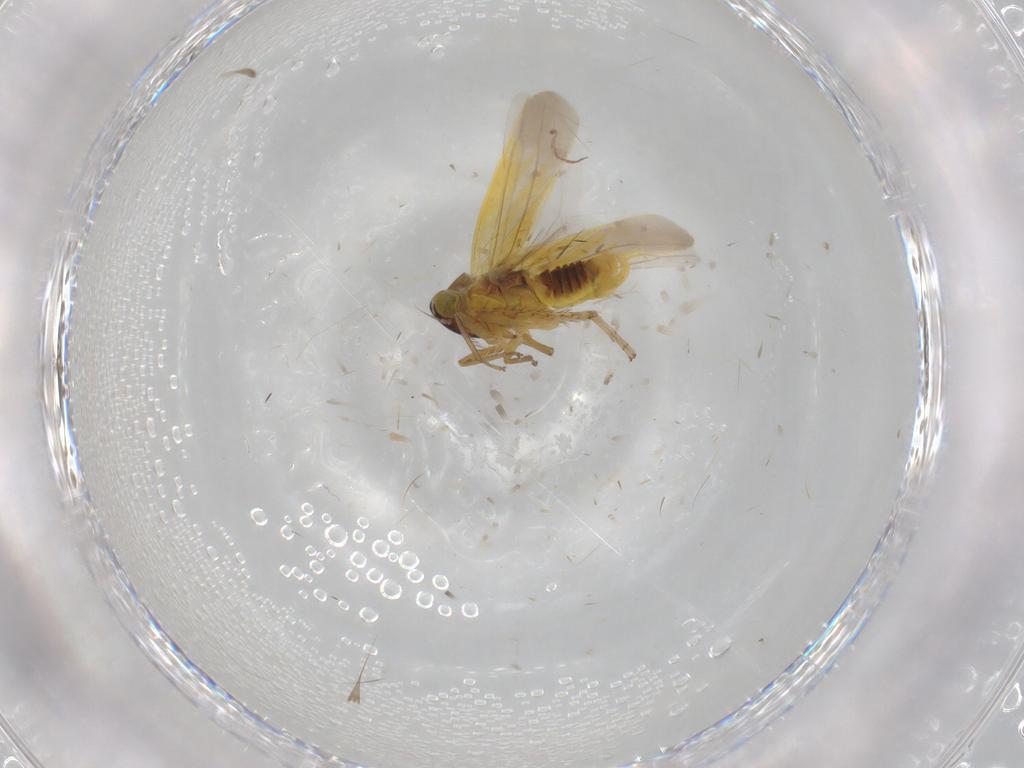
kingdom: Animalia
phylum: Arthropoda
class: Insecta
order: Hemiptera
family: Cicadellidae
